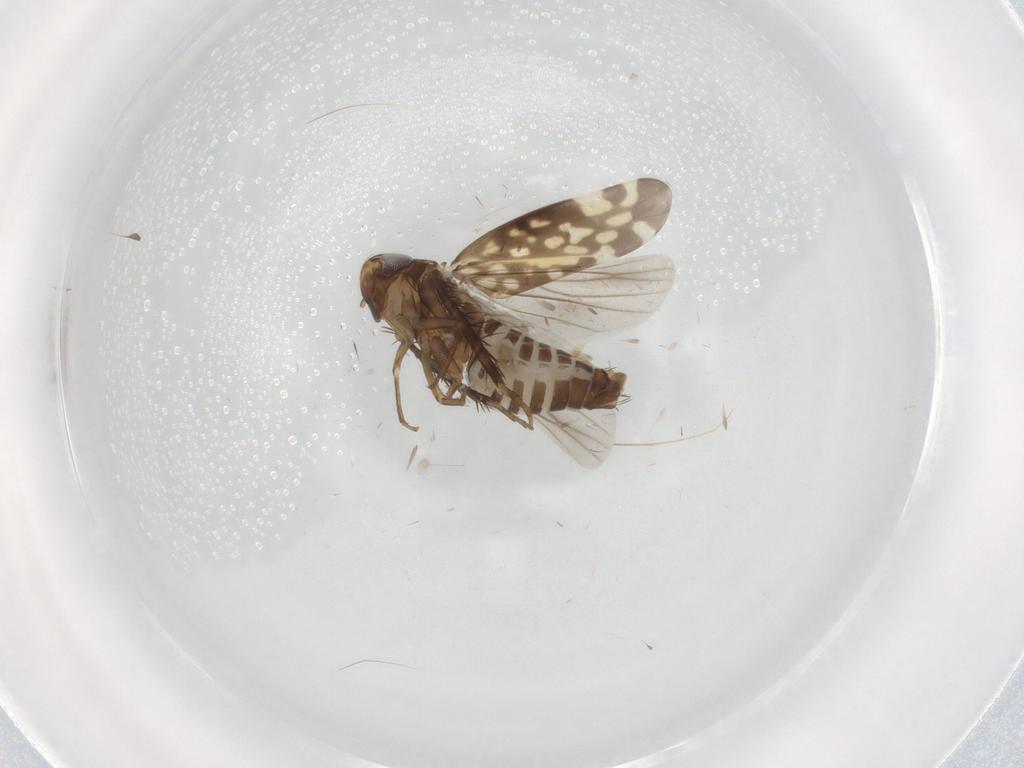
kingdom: Animalia
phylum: Arthropoda
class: Insecta
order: Hemiptera
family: Cicadellidae
